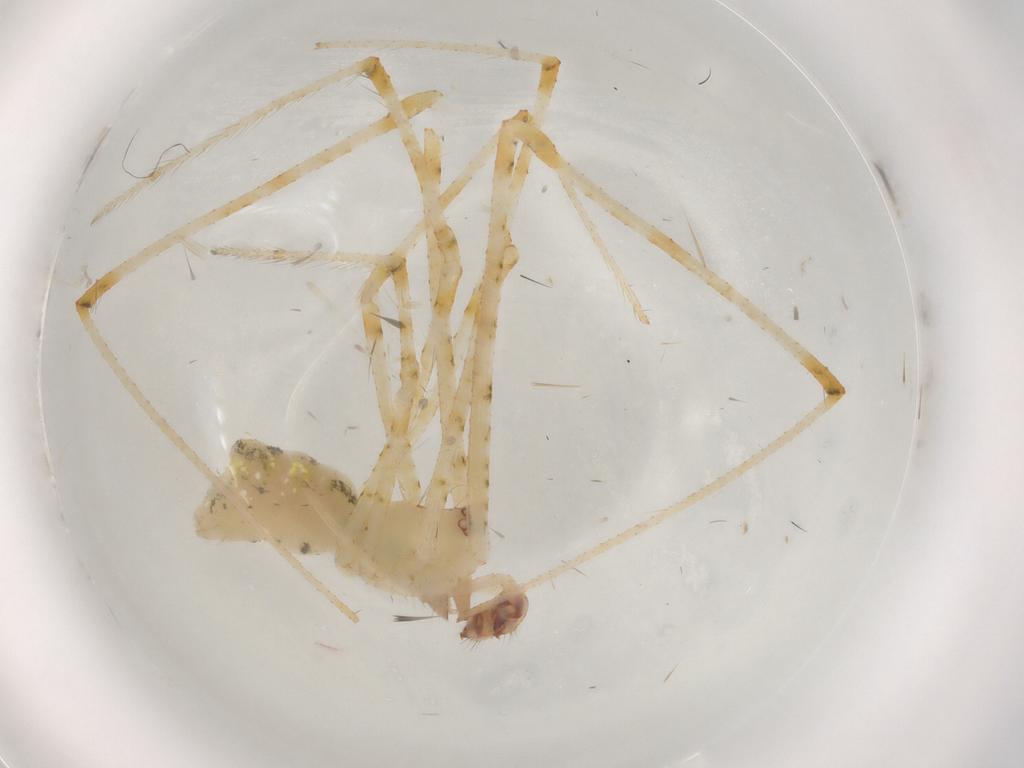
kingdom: Animalia
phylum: Arthropoda
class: Arachnida
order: Araneae
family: Theridiidae
